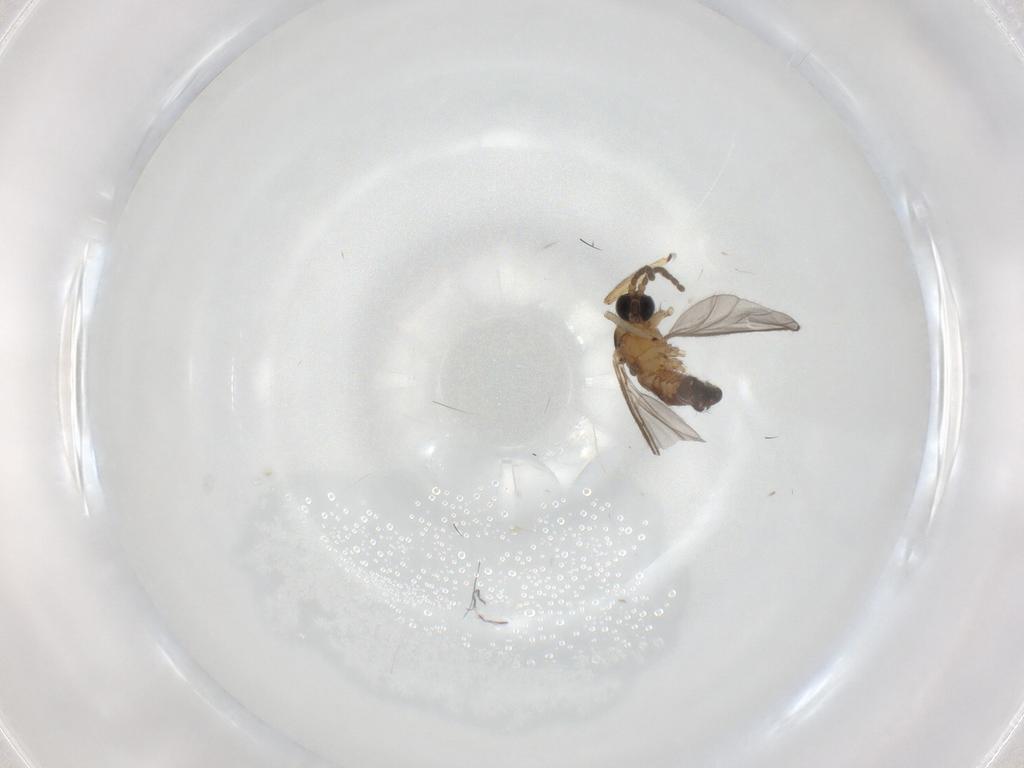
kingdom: Animalia
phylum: Arthropoda
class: Insecta
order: Diptera
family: Sciaridae
